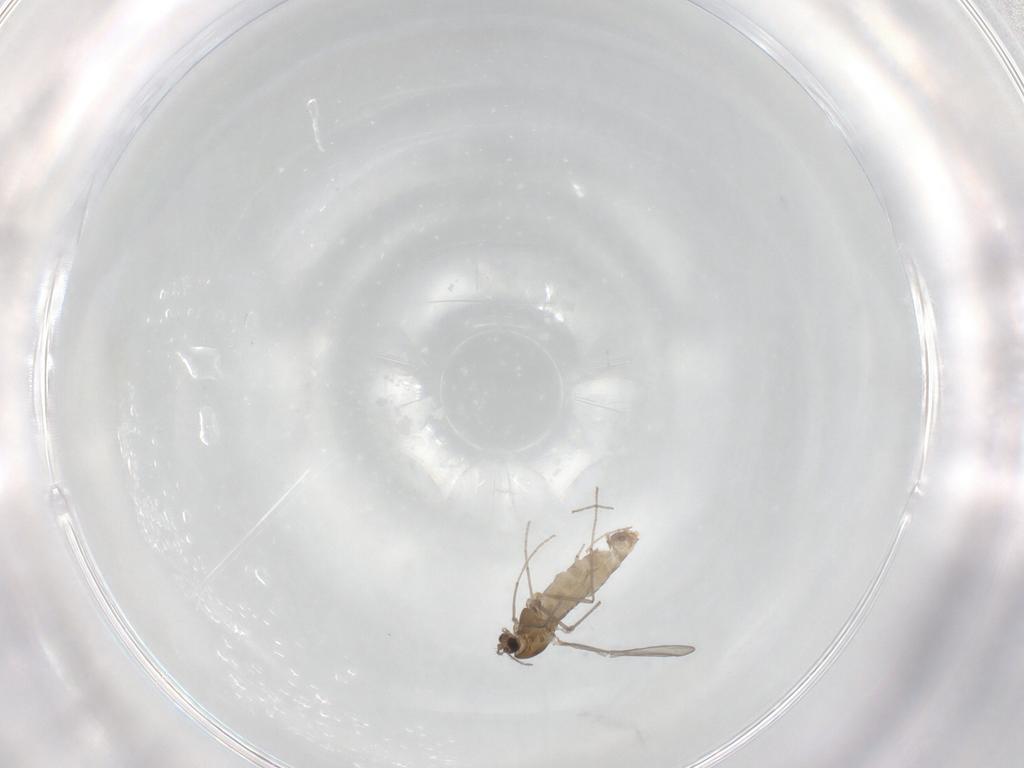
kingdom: Animalia
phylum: Arthropoda
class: Insecta
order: Diptera
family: Chironomidae
